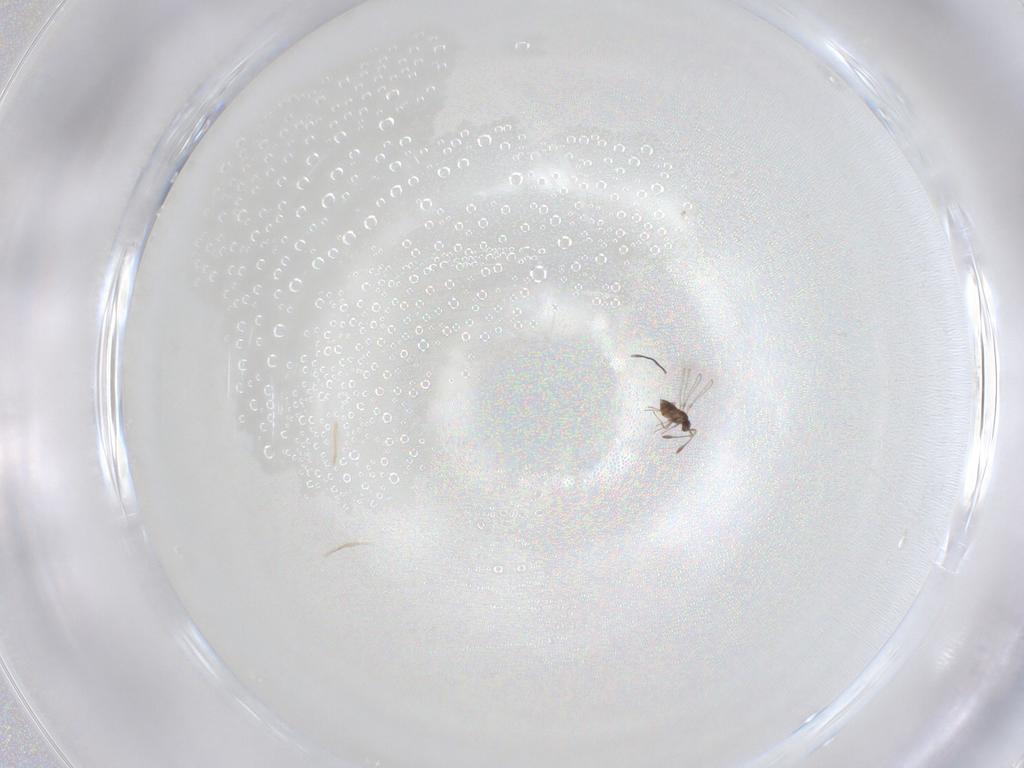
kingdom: Animalia
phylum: Arthropoda
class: Insecta
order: Hymenoptera
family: Trichogrammatidae
